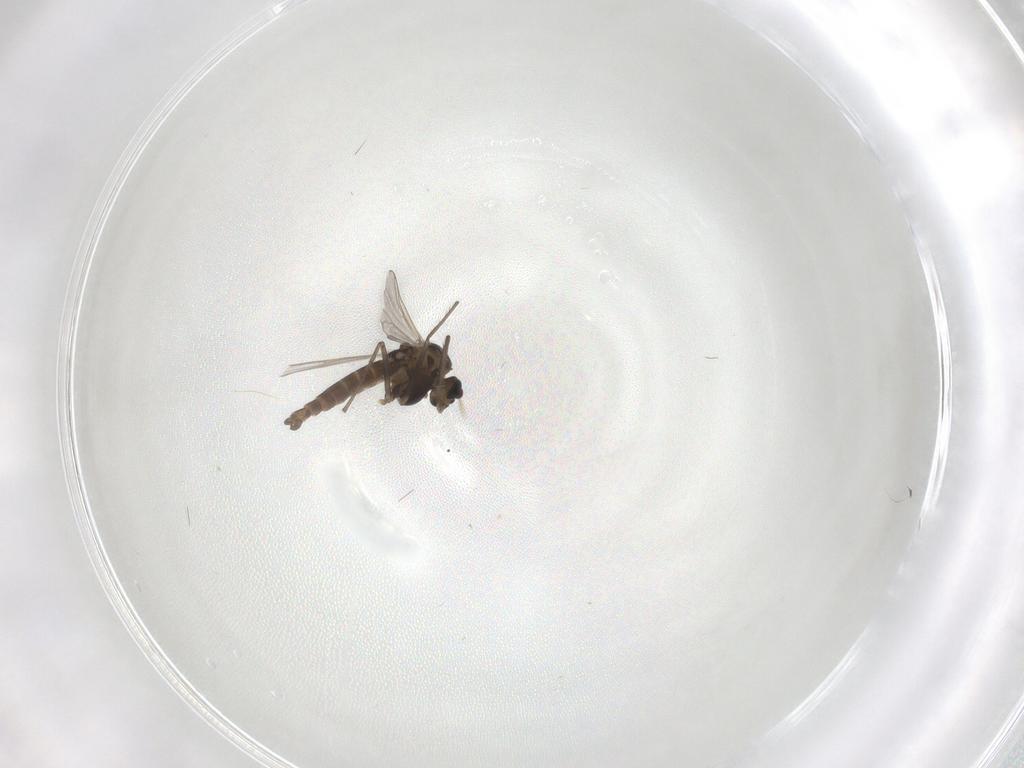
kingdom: Animalia
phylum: Arthropoda
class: Insecta
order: Diptera
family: Chironomidae
